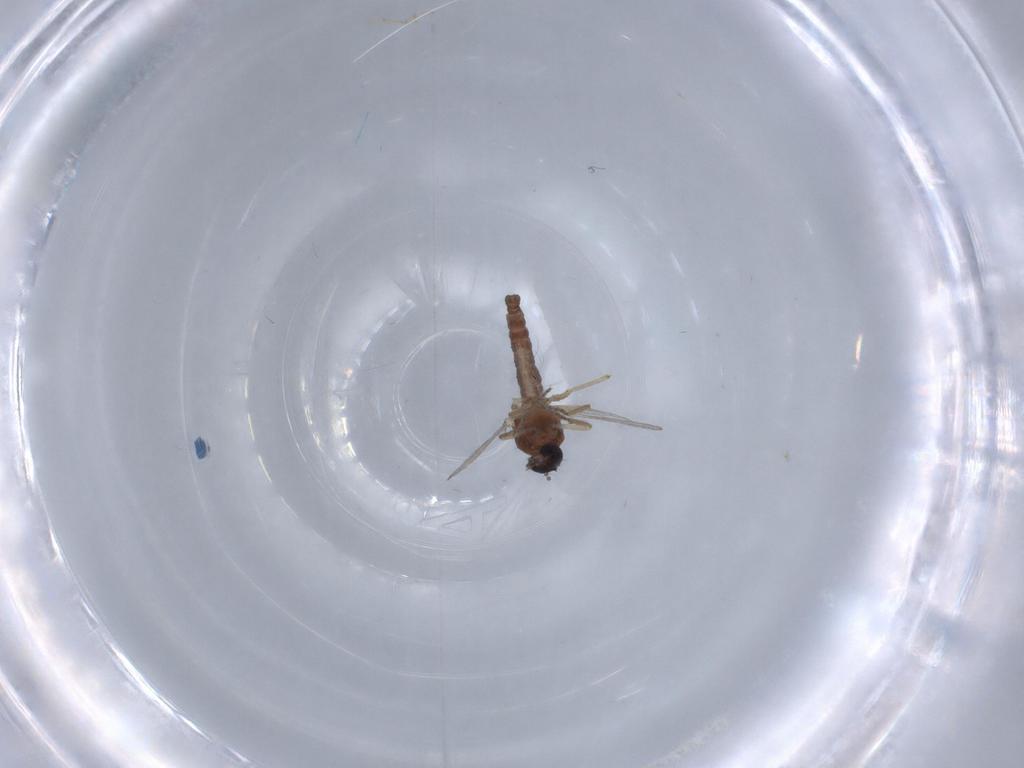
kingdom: Animalia
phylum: Arthropoda
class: Insecta
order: Diptera
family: Ceratopogonidae
